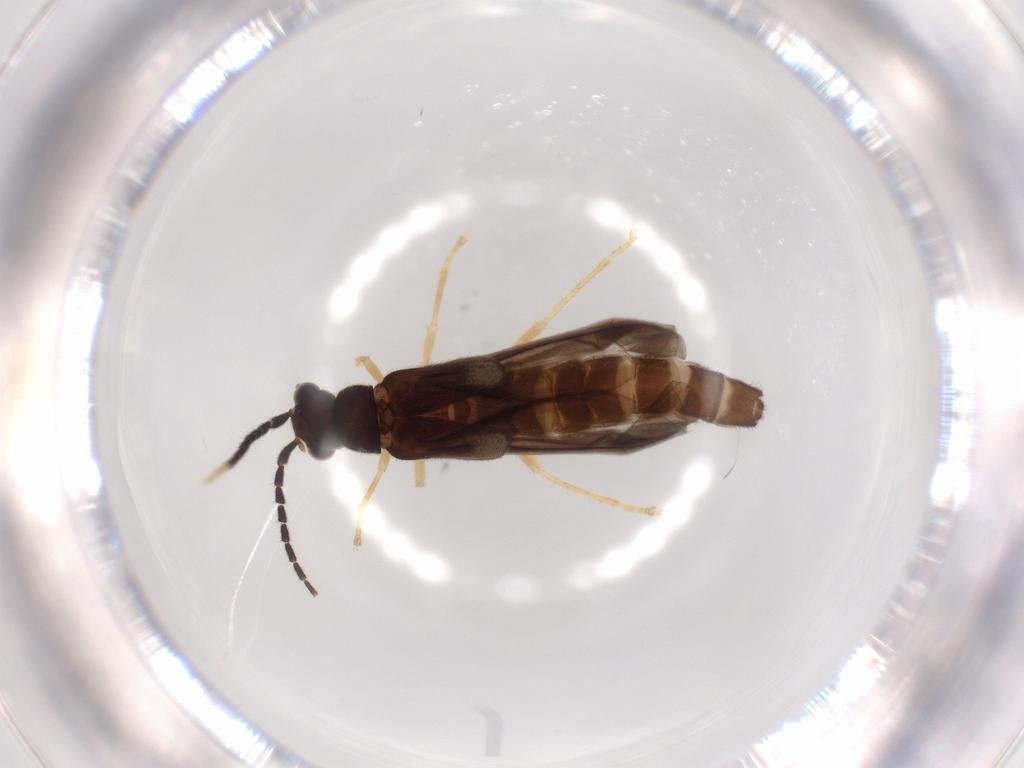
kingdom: Animalia
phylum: Arthropoda
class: Insecta
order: Coleoptera
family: Cantharidae
